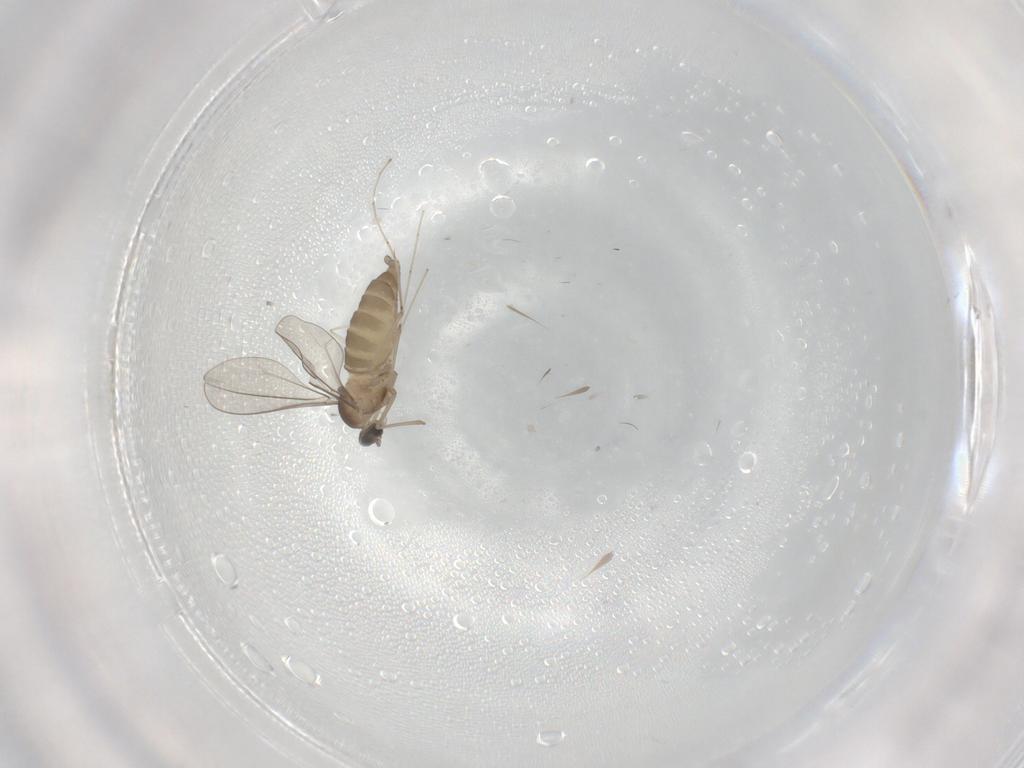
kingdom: Animalia
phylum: Arthropoda
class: Insecta
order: Diptera
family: Cecidomyiidae
